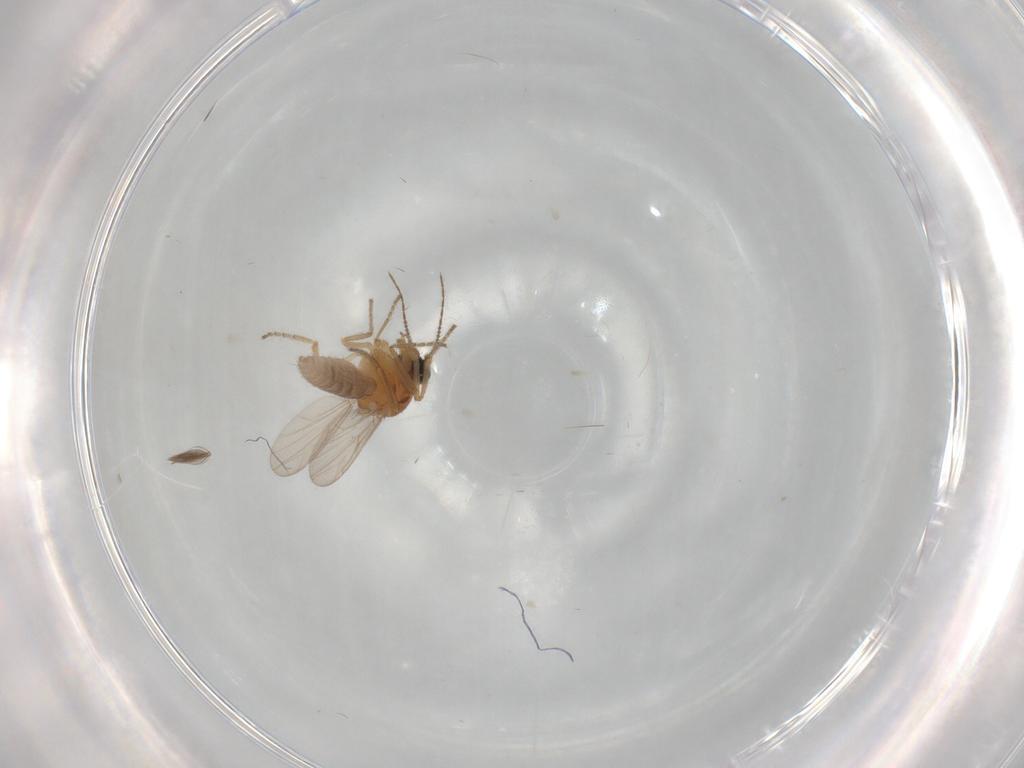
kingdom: Animalia
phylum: Arthropoda
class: Insecta
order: Diptera
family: Ceratopogonidae
